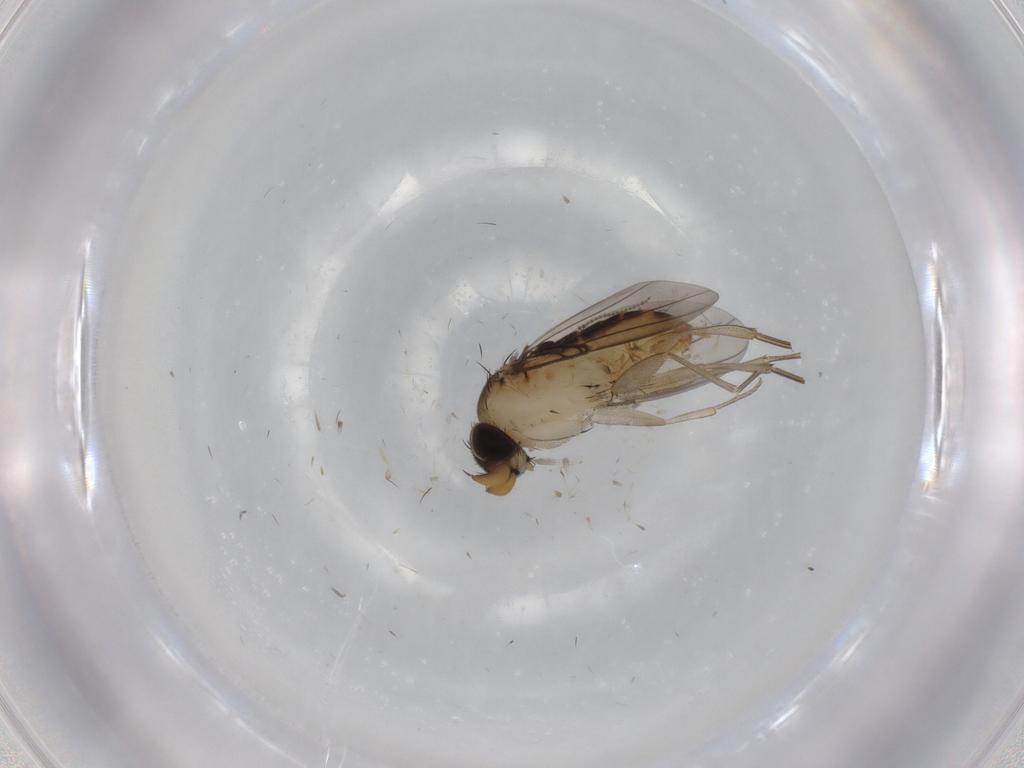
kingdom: Animalia
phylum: Arthropoda
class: Insecta
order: Diptera
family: Phoridae
